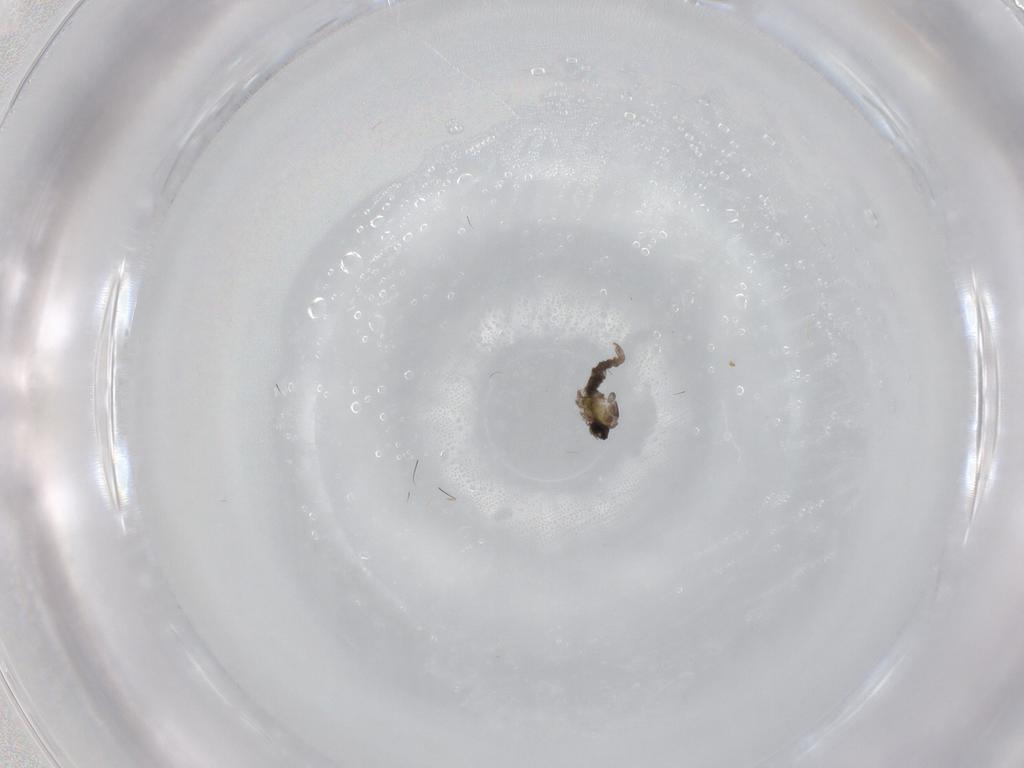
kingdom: Animalia
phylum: Arthropoda
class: Insecta
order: Diptera
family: Cecidomyiidae
